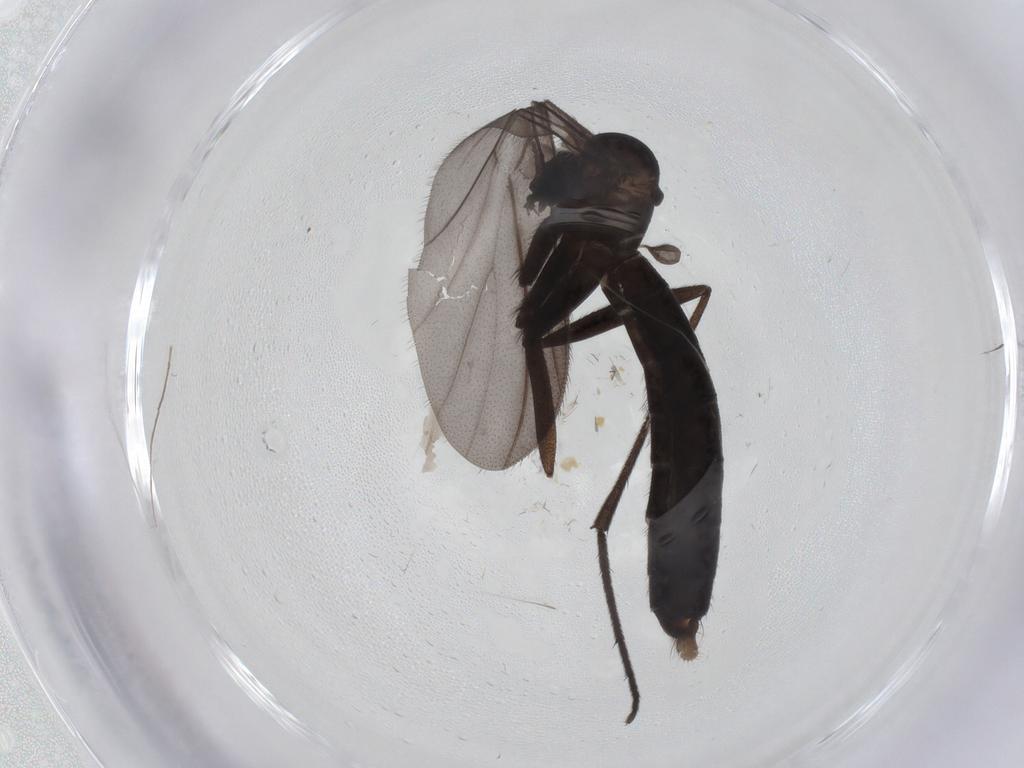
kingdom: Animalia
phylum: Arthropoda
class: Insecta
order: Diptera
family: Ditomyiidae
